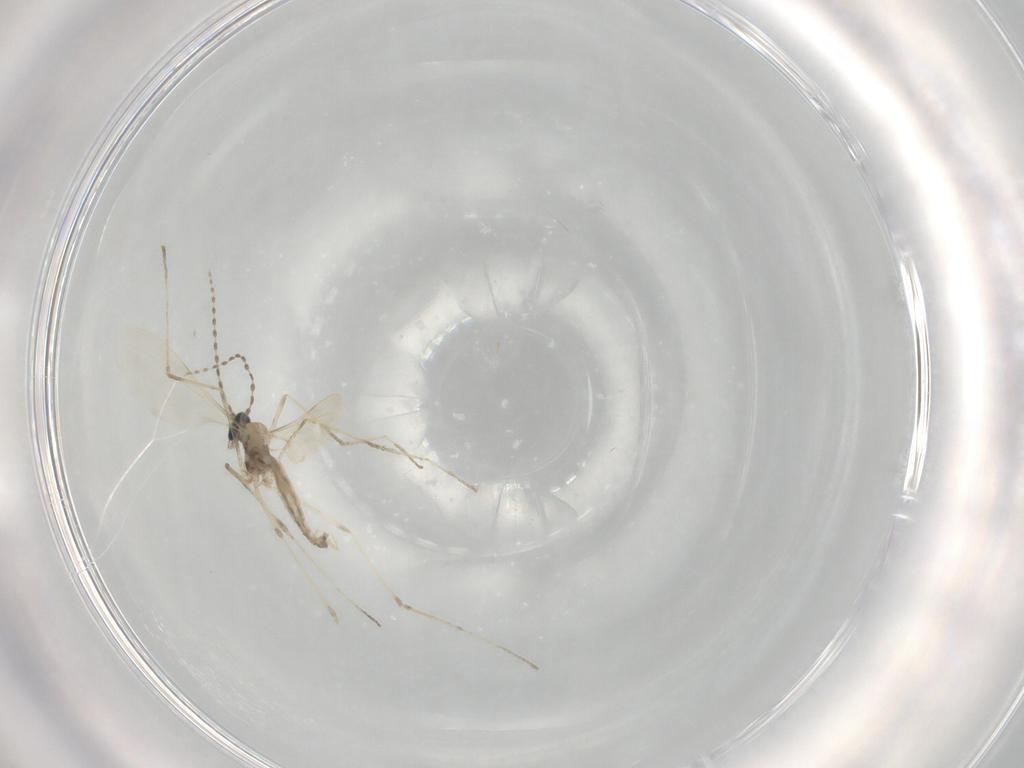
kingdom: Animalia
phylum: Arthropoda
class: Insecta
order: Diptera
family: Cecidomyiidae
